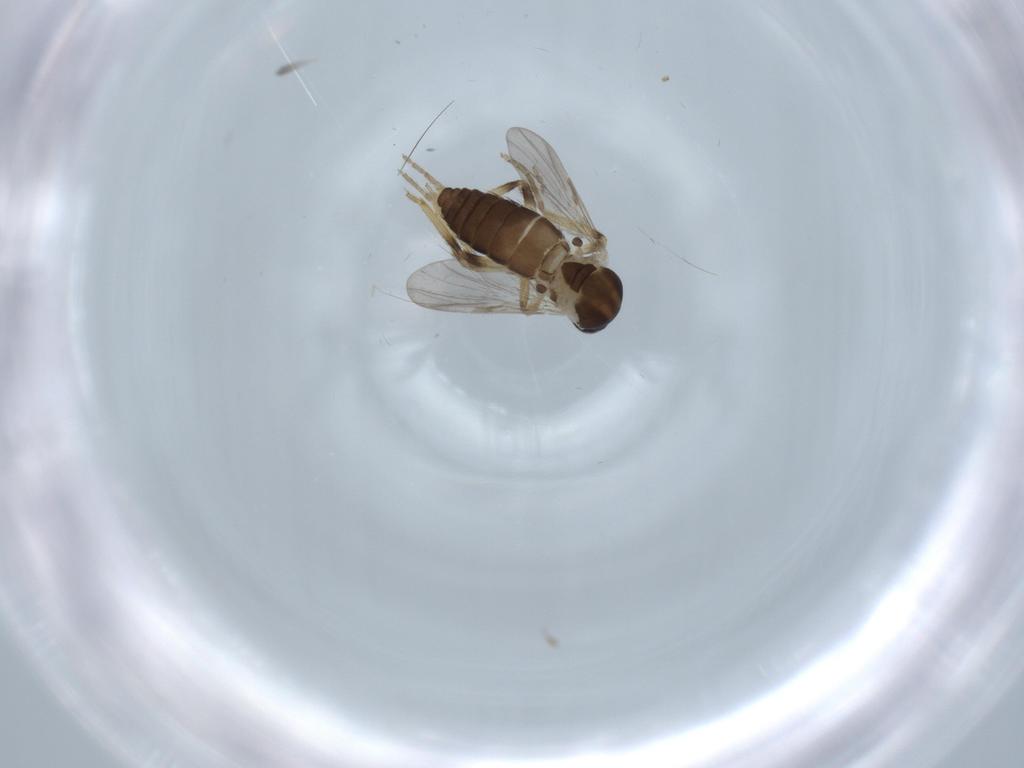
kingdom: Animalia
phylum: Arthropoda
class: Insecta
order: Diptera
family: Ceratopogonidae
